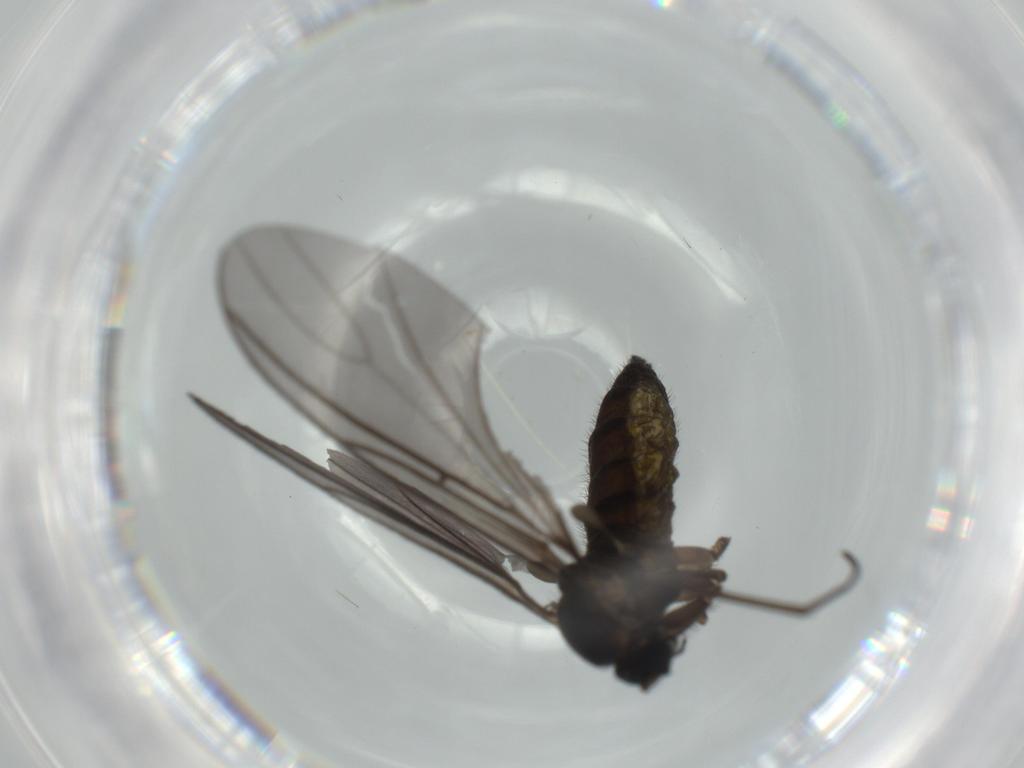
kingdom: Animalia
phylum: Arthropoda
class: Insecta
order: Diptera
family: Sciaridae
